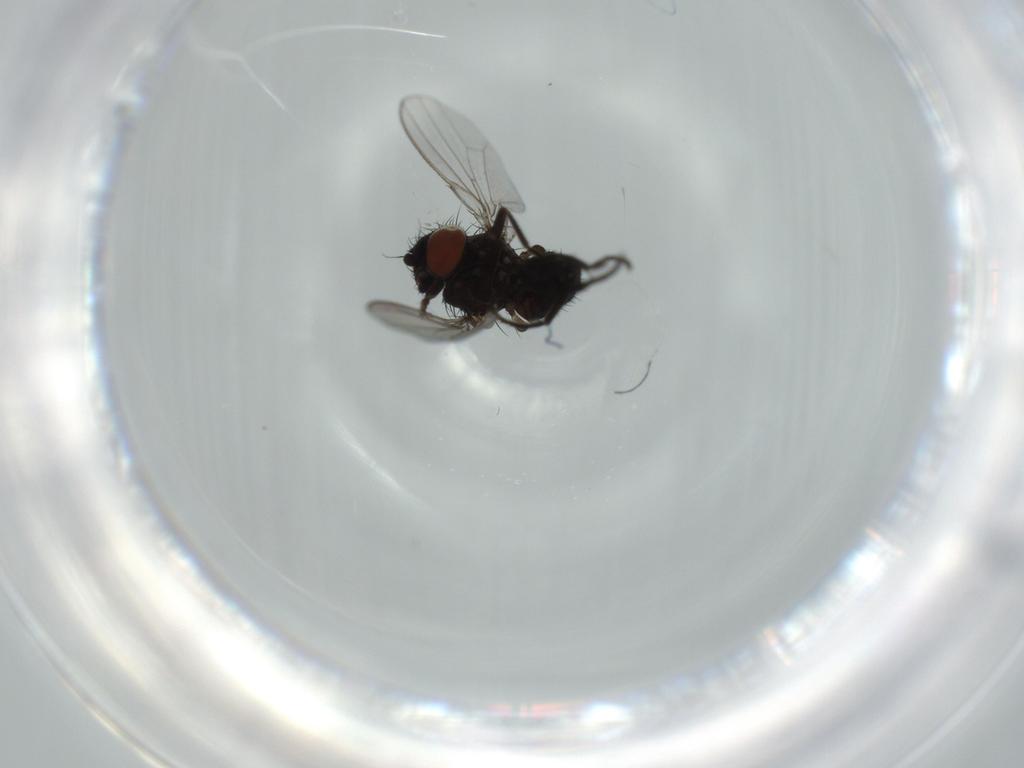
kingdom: Animalia
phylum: Arthropoda
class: Insecta
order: Diptera
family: Milichiidae
